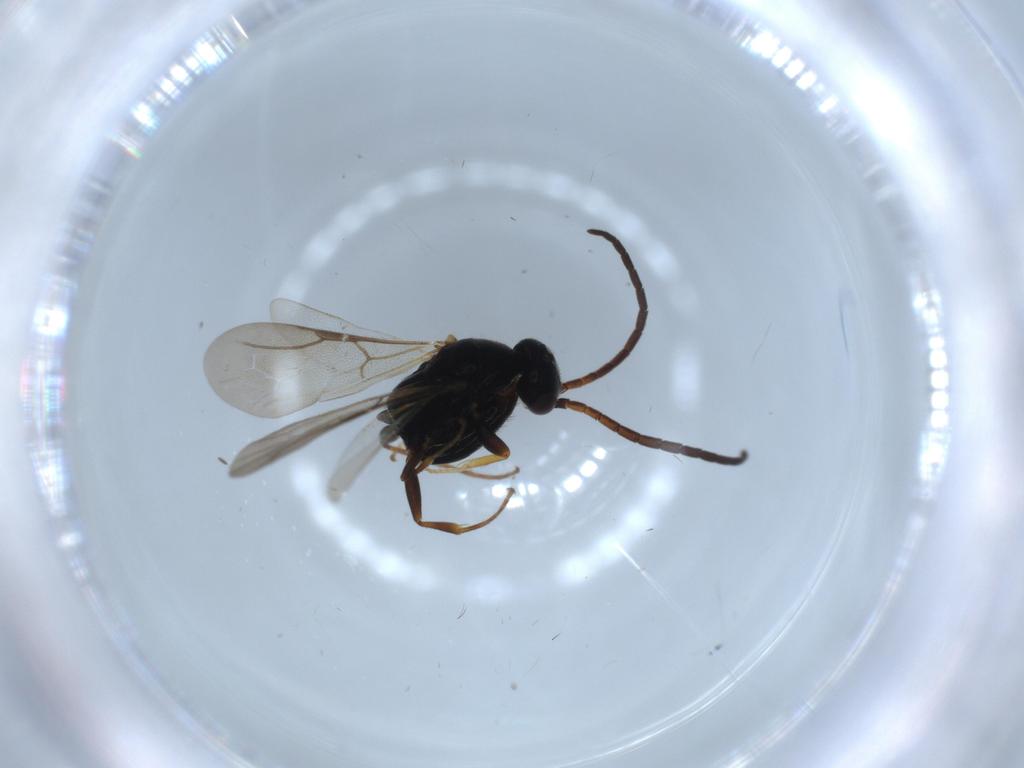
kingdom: Animalia
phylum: Arthropoda
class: Insecta
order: Hymenoptera
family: Bethylidae
